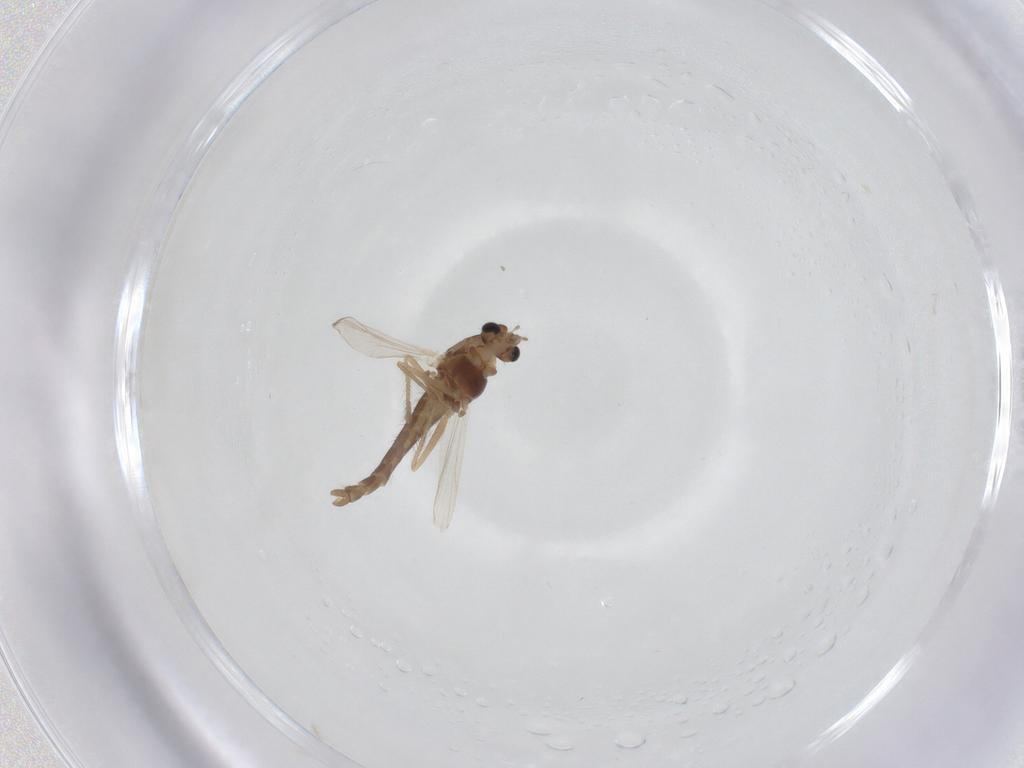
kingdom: Animalia
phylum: Arthropoda
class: Insecta
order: Diptera
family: Chironomidae
